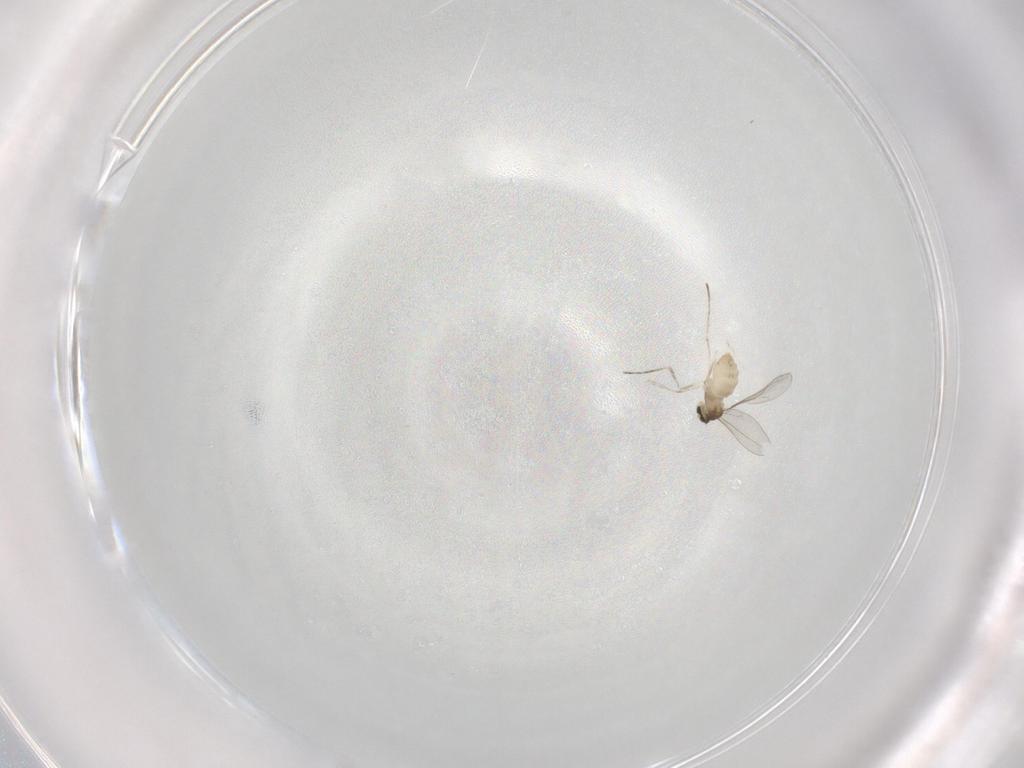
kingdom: Animalia
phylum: Arthropoda
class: Insecta
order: Diptera
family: Cecidomyiidae
